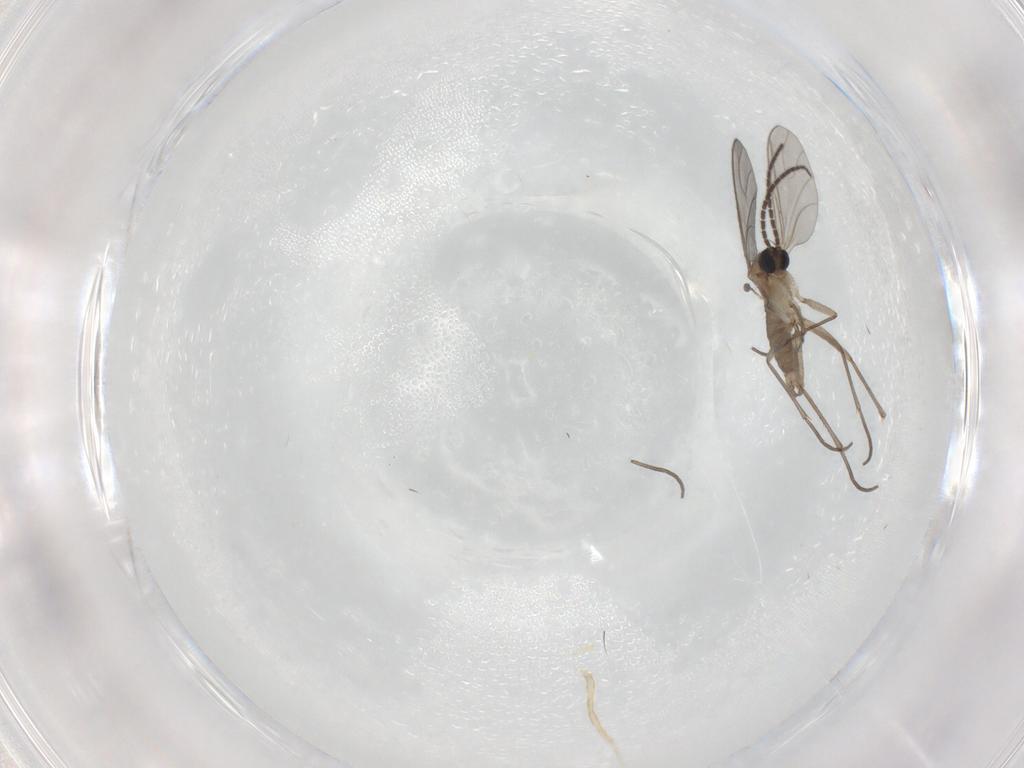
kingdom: Animalia
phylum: Arthropoda
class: Insecta
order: Diptera
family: Sciaridae
